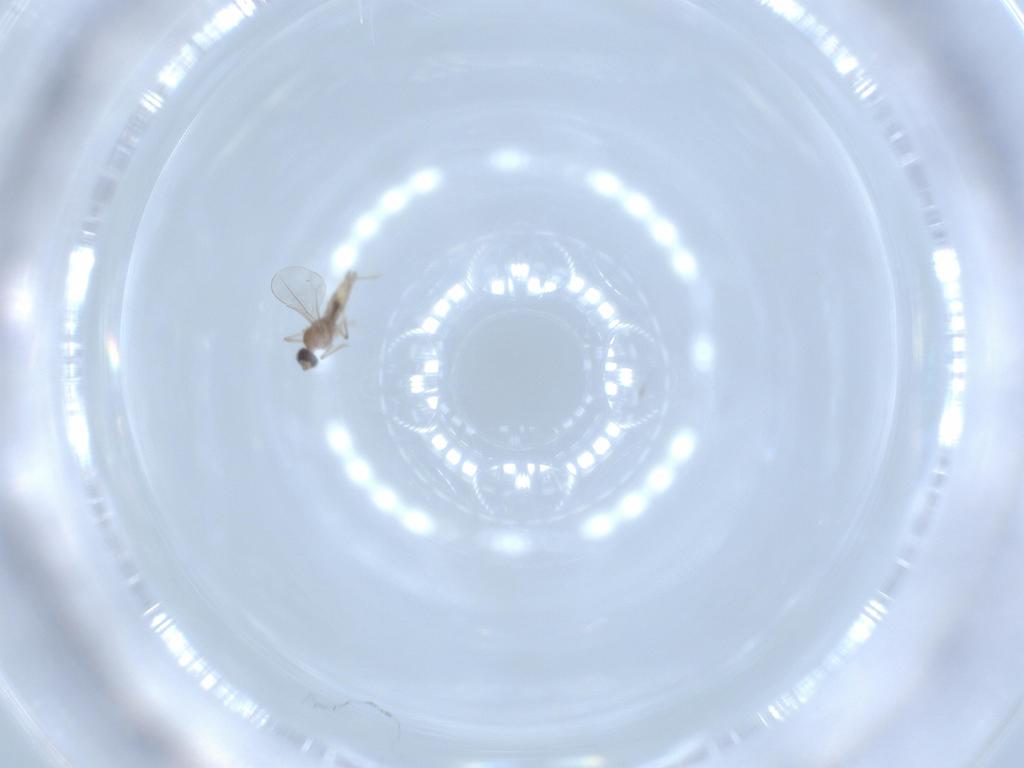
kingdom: Animalia
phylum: Arthropoda
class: Insecta
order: Diptera
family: Cecidomyiidae
